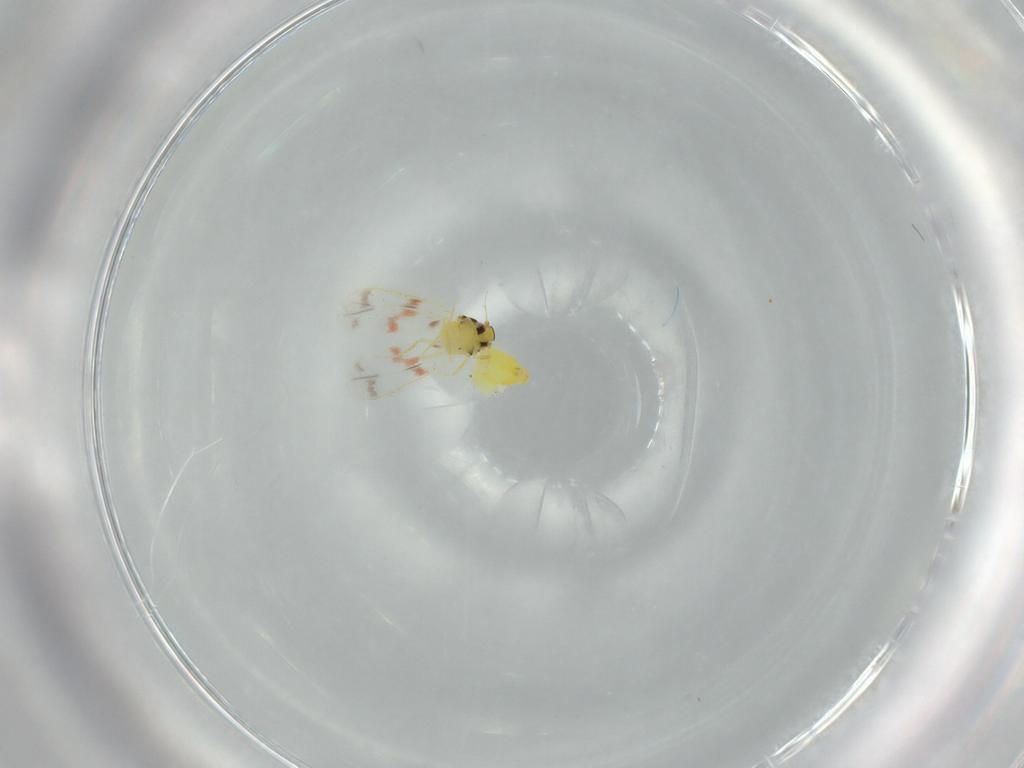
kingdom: Animalia
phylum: Arthropoda
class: Insecta
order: Hemiptera
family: Aleyrodidae
